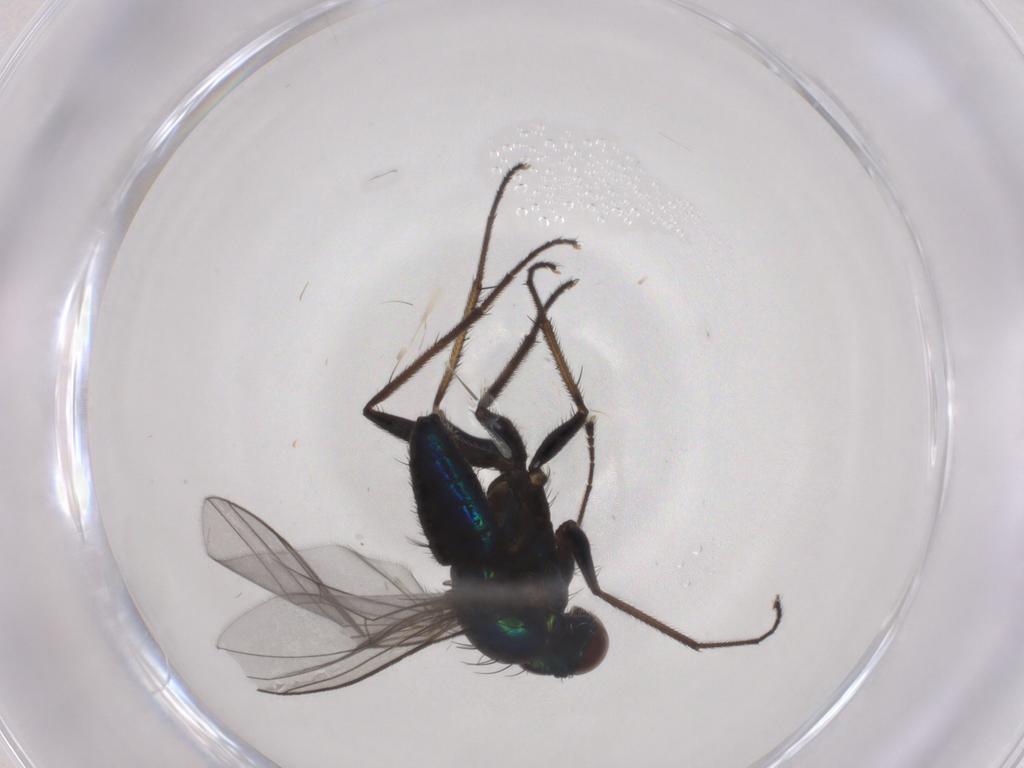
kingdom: Animalia
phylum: Arthropoda
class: Insecta
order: Diptera
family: Dolichopodidae
